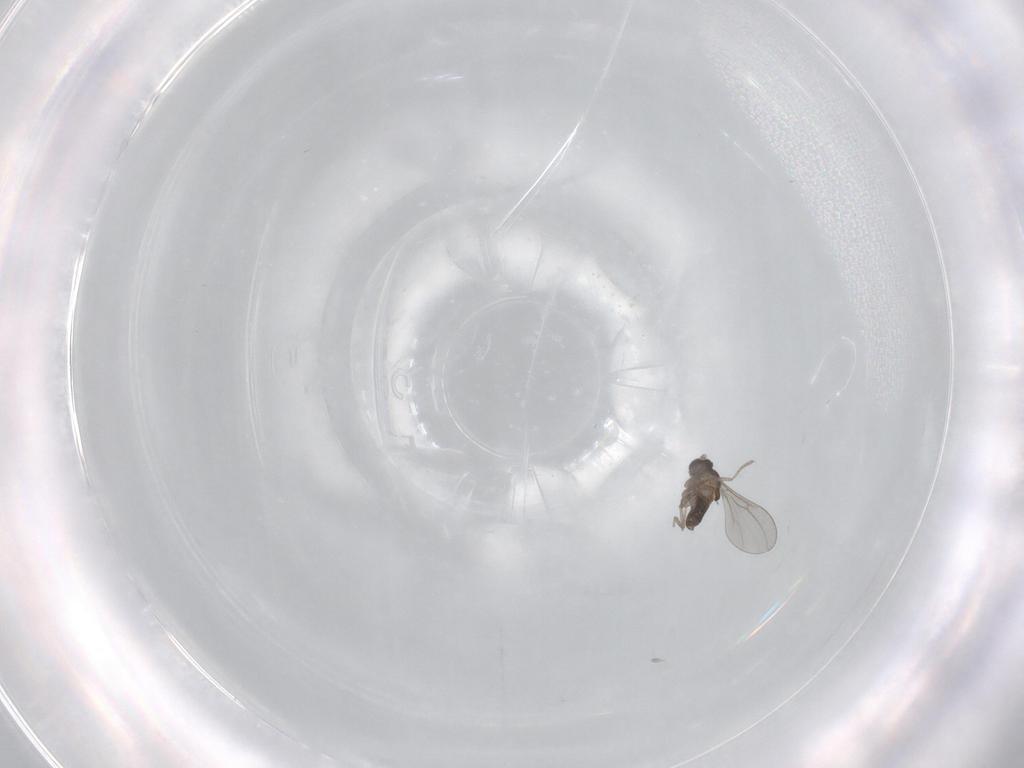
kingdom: Animalia
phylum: Arthropoda
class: Insecta
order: Diptera
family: Cecidomyiidae
